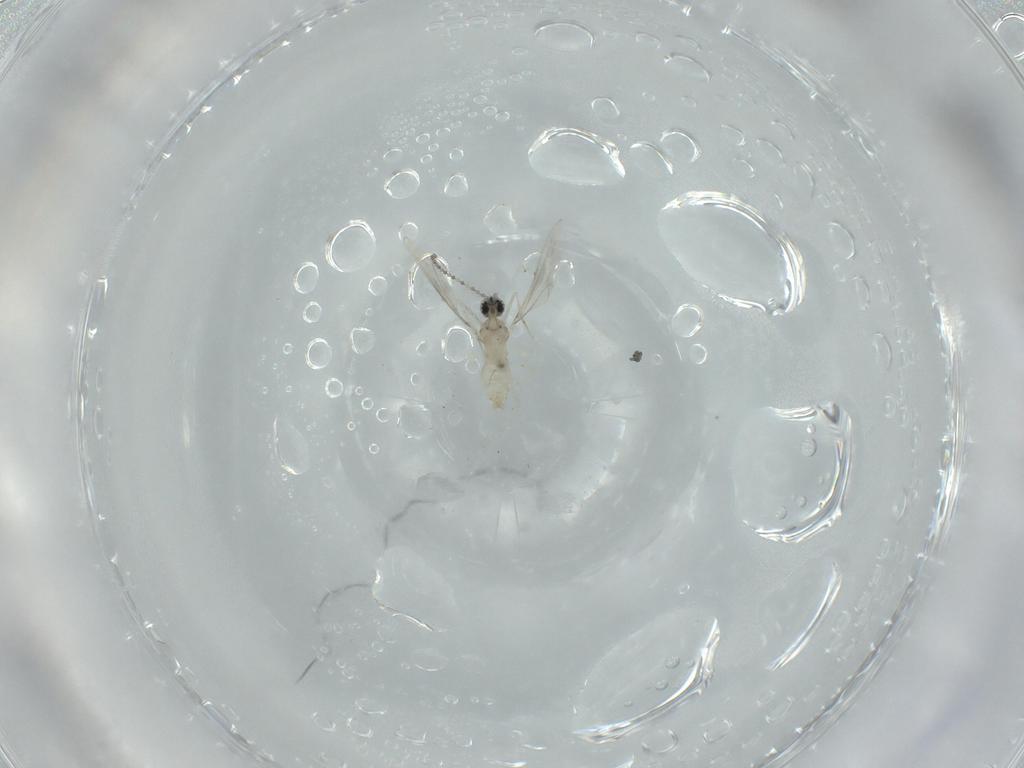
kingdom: Animalia
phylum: Arthropoda
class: Insecta
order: Diptera
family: Cecidomyiidae
